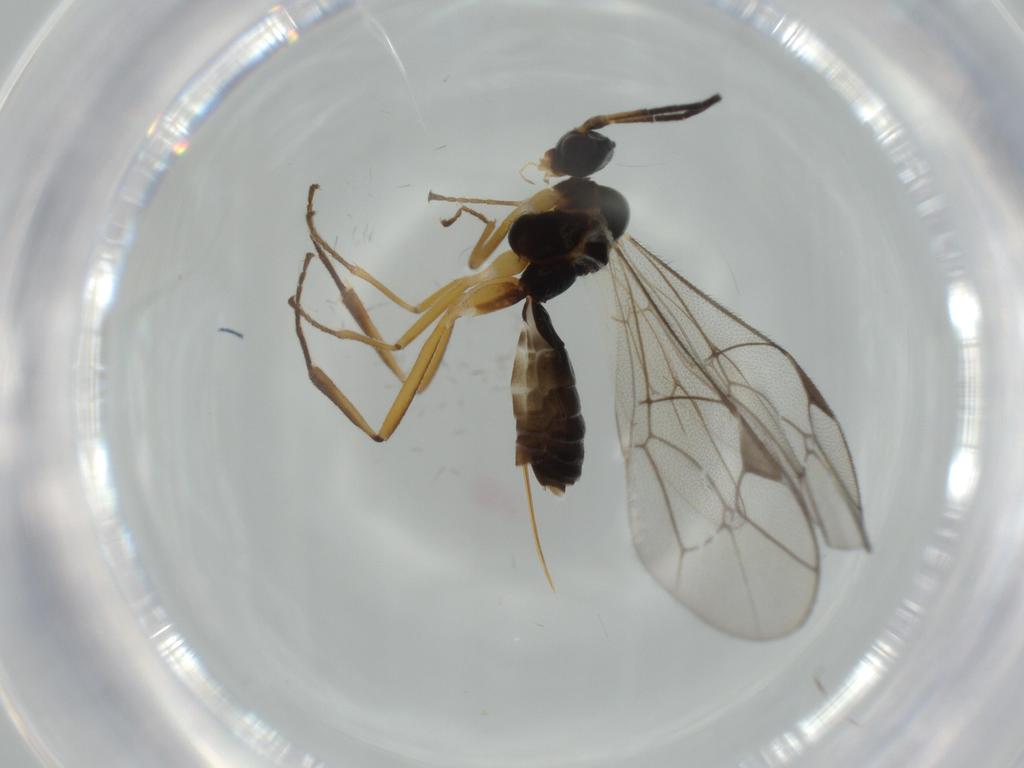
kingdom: Animalia
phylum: Arthropoda
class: Insecta
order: Hymenoptera
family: Ichneumonidae
